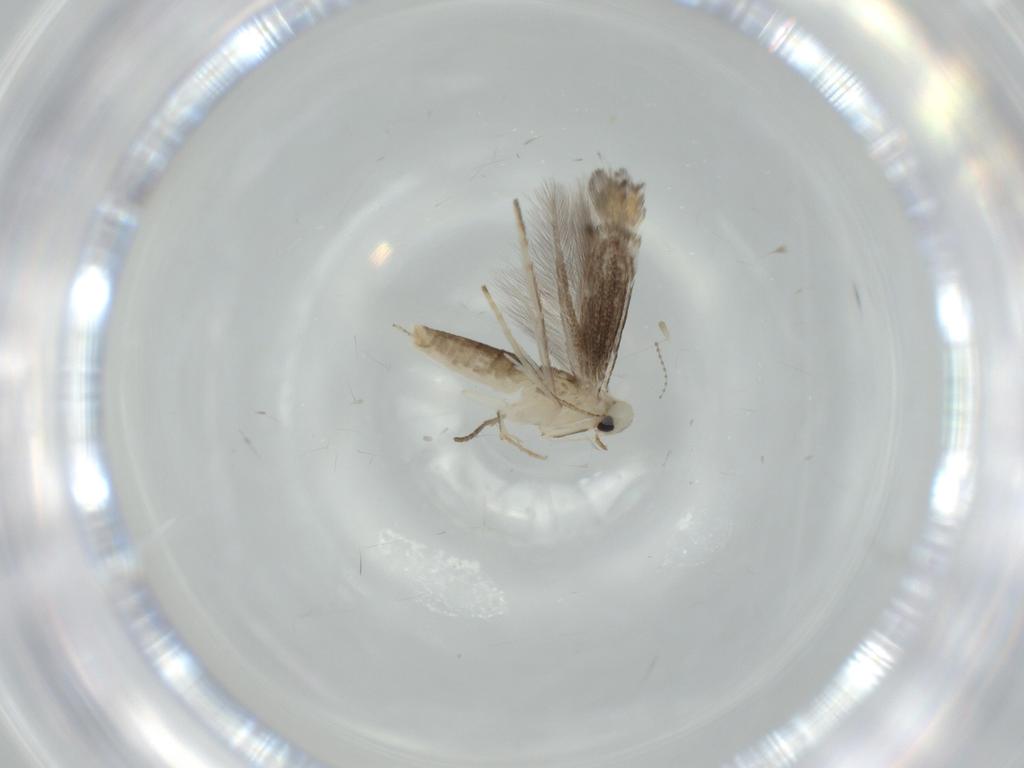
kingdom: Animalia
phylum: Arthropoda
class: Insecta
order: Lepidoptera
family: Gracillariidae
